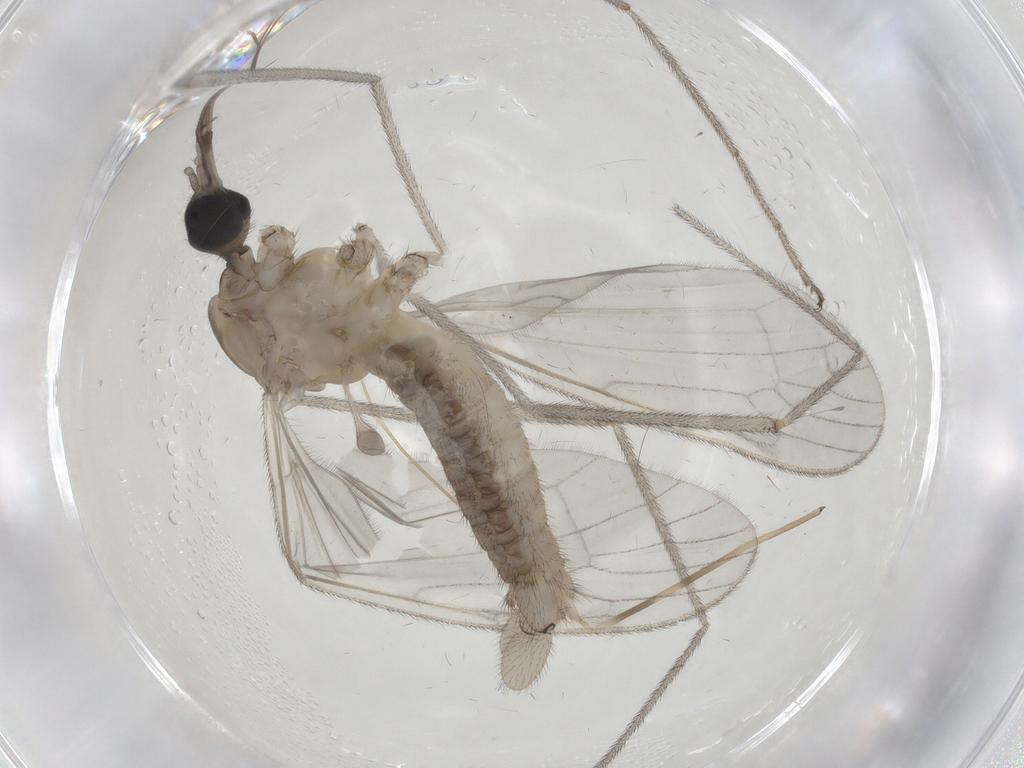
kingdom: Animalia
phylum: Arthropoda
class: Insecta
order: Diptera
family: Cecidomyiidae
